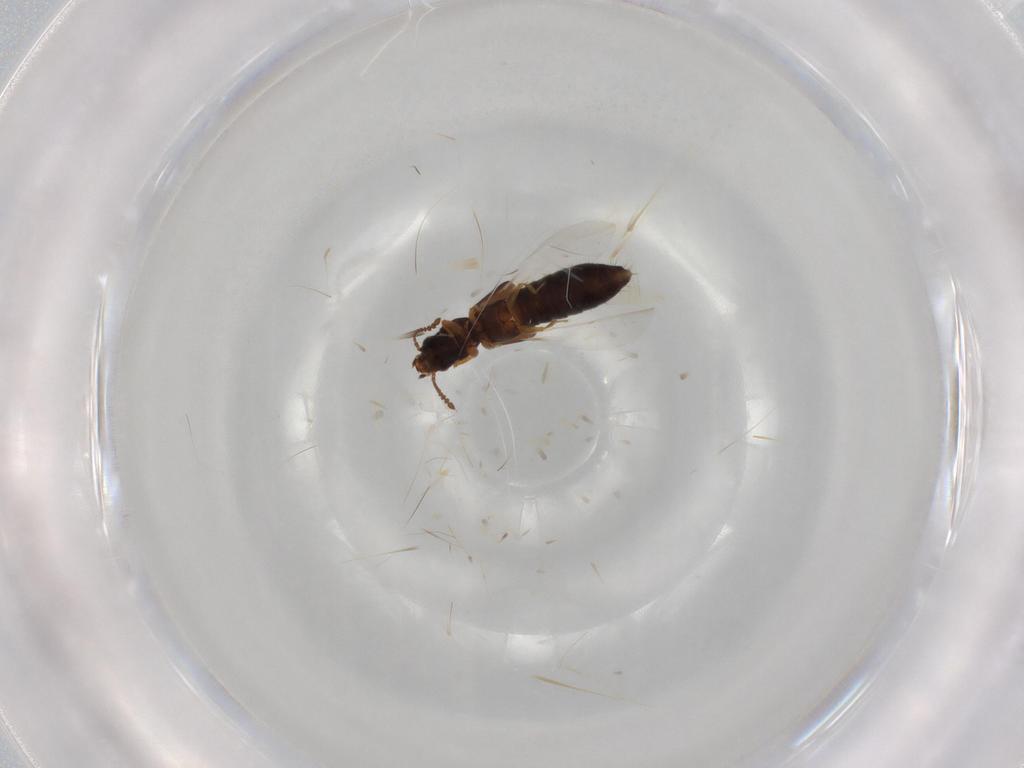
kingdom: Animalia
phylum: Arthropoda
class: Insecta
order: Coleoptera
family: Staphylinidae
